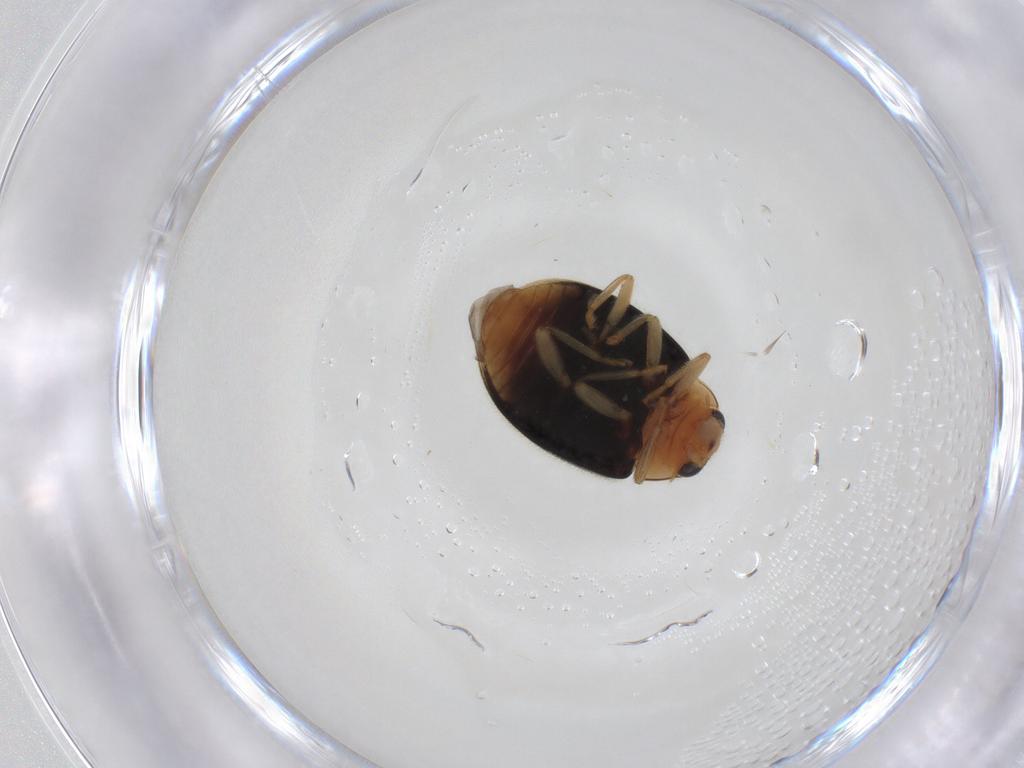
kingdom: Animalia
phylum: Arthropoda
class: Insecta
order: Coleoptera
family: Coccinellidae
